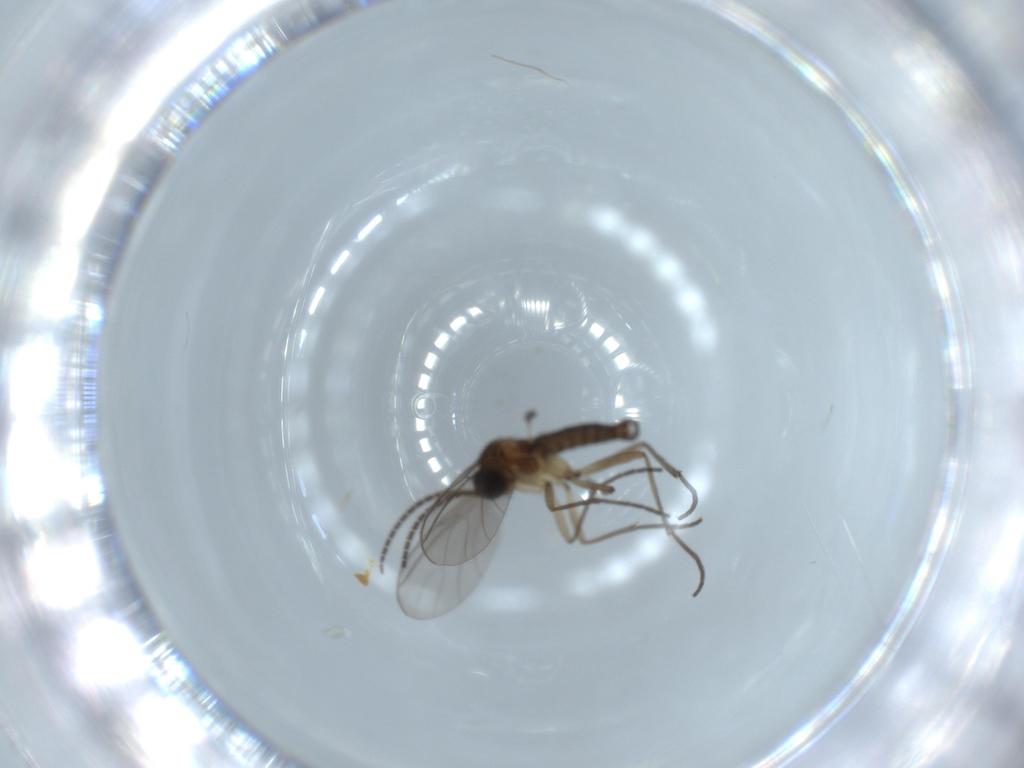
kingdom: Animalia
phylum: Arthropoda
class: Insecta
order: Diptera
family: Sciaridae
